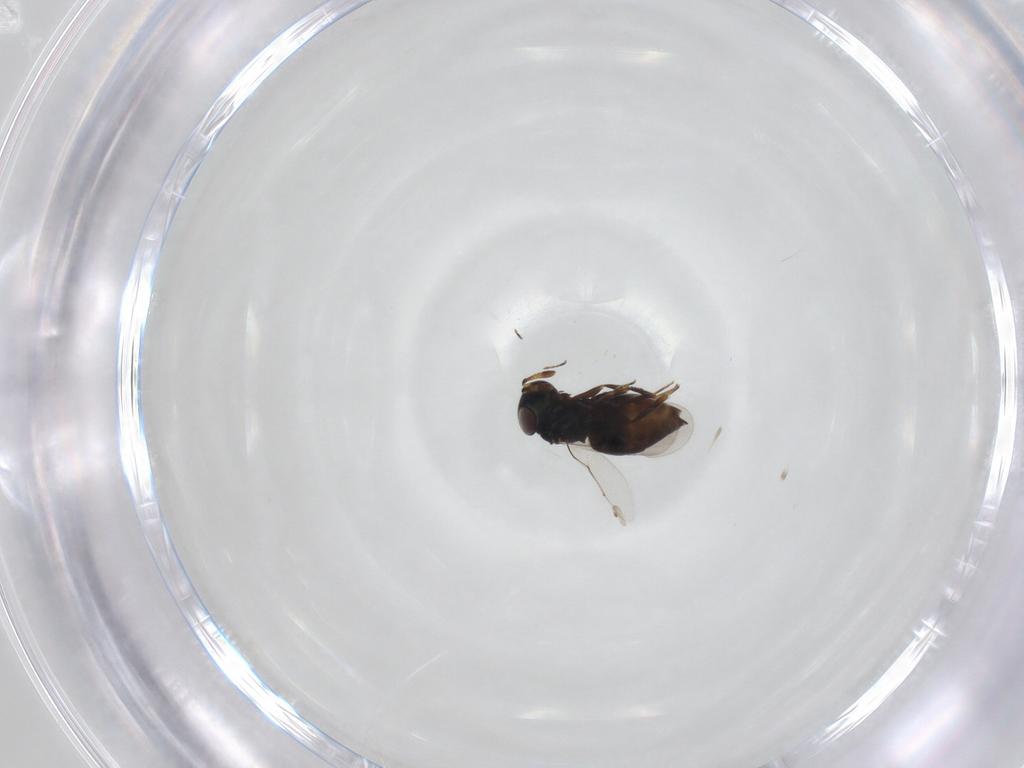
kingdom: Animalia
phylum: Arthropoda
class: Insecta
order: Hymenoptera
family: Eunotidae
